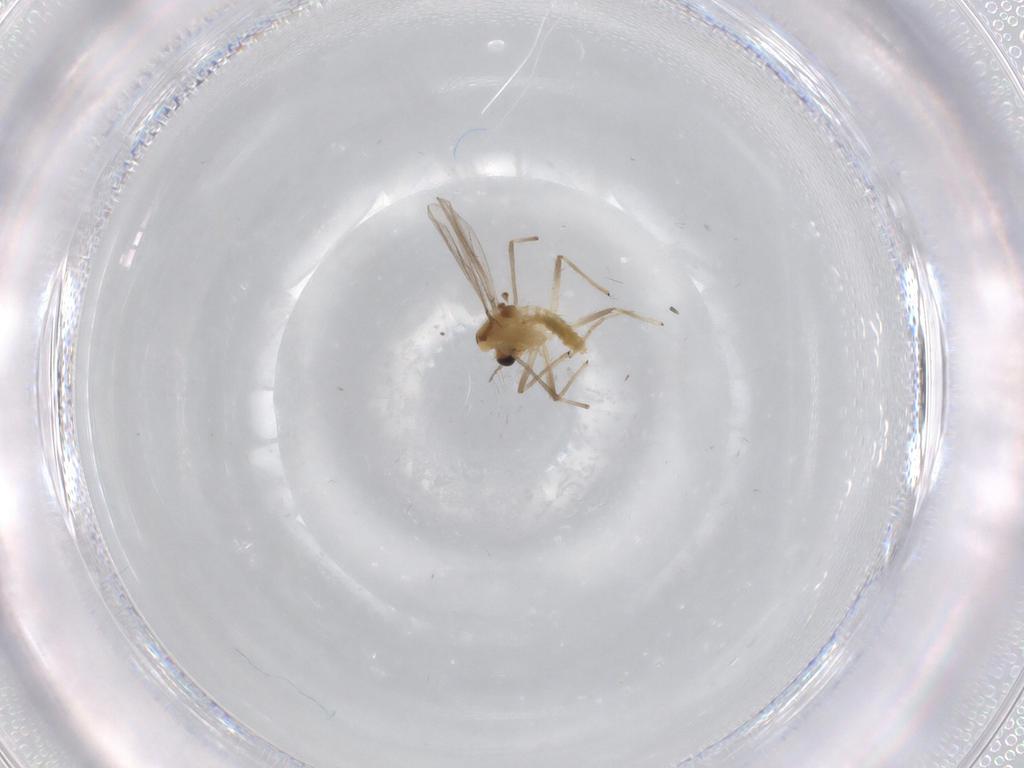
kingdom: Animalia
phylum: Arthropoda
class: Insecta
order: Diptera
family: Chironomidae
